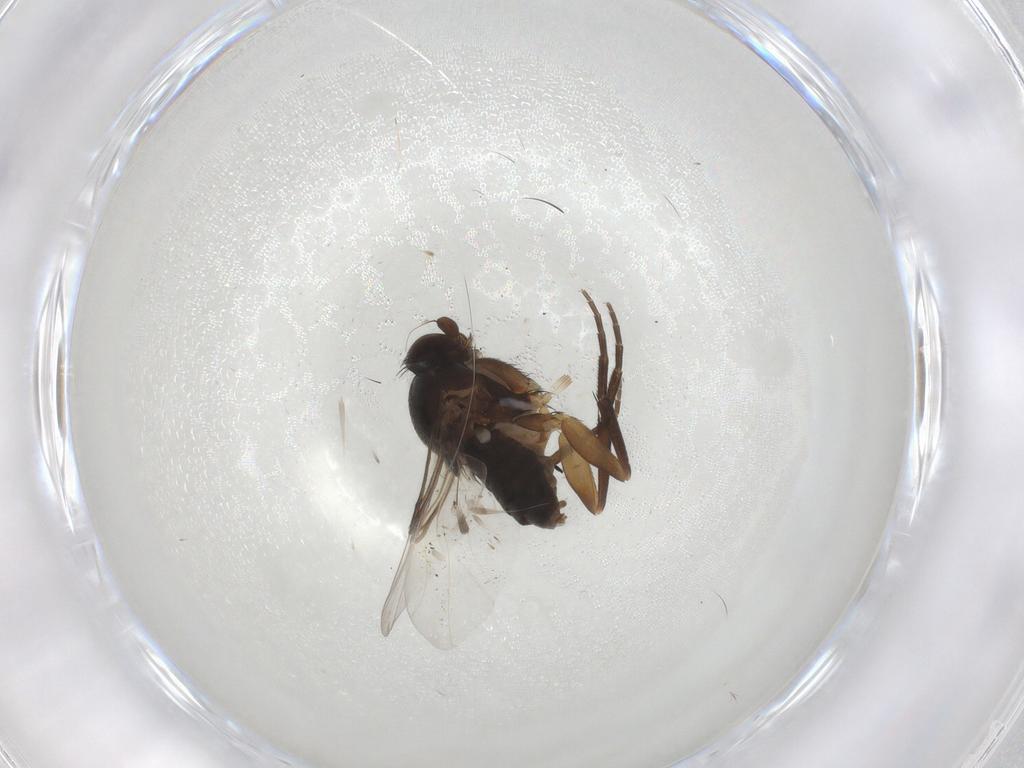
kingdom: Animalia
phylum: Arthropoda
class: Insecta
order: Diptera
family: Phoridae
